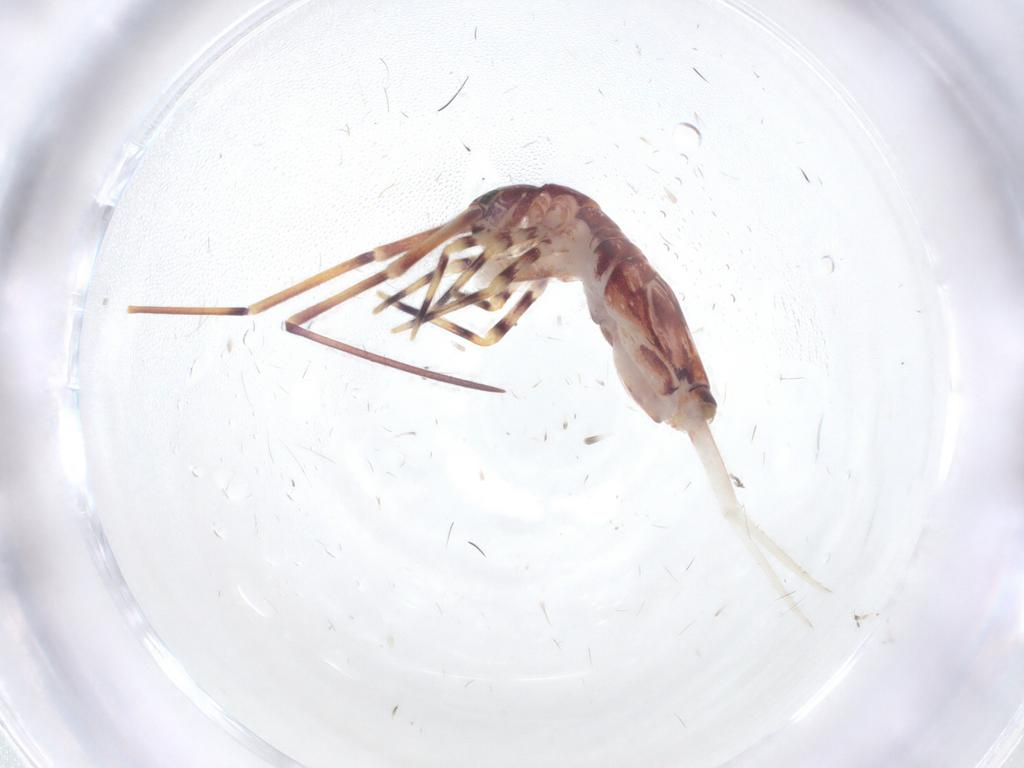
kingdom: Animalia
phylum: Arthropoda
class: Collembola
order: Entomobryomorpha
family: Entomobryidae
